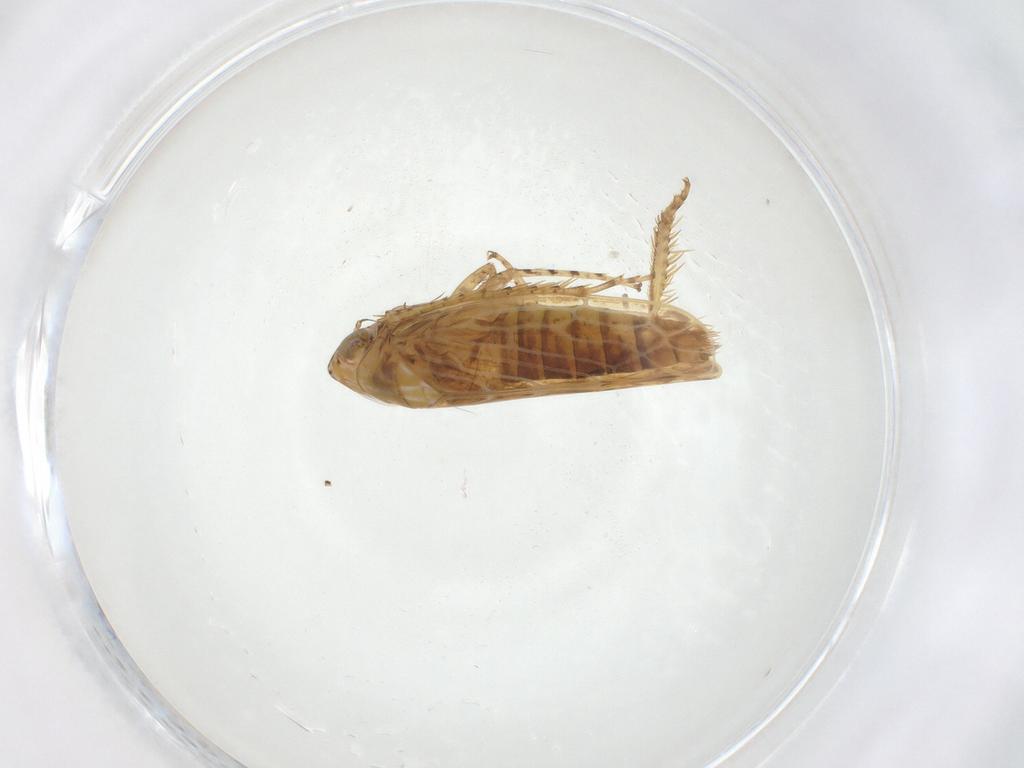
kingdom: Animalia
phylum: Arthropoda
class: Insecta
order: Hemiptera
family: Cicadellidae
